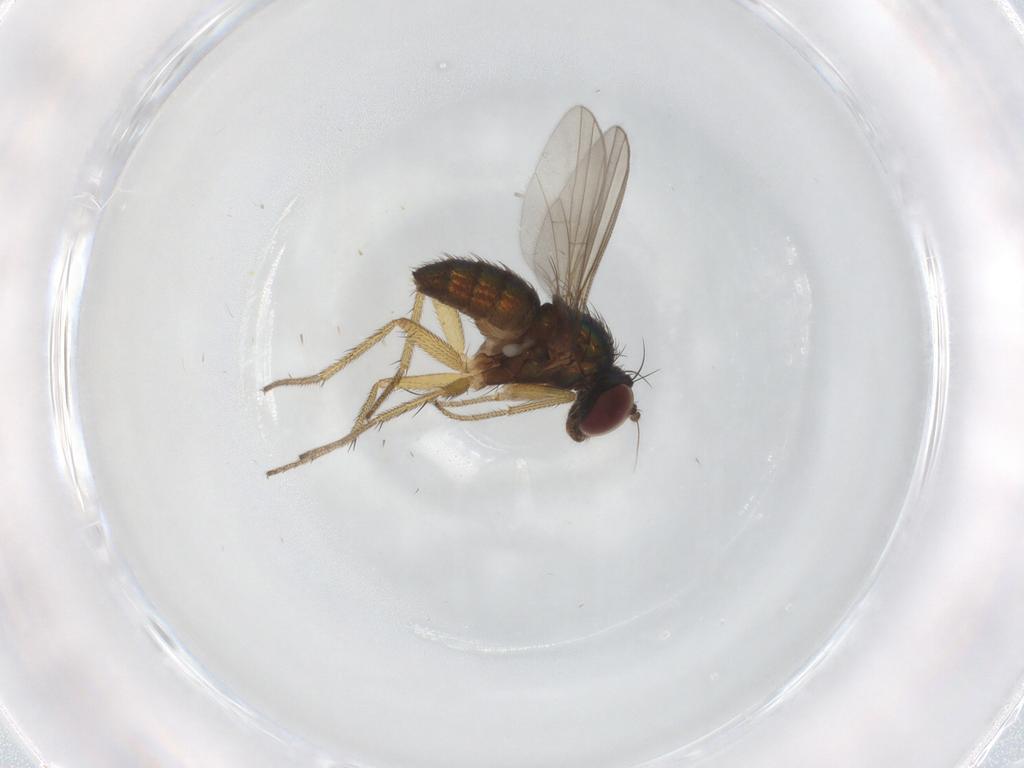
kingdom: Animalia
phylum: Arthropoda
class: Insecta
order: Diptera
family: Dolichopodidae
